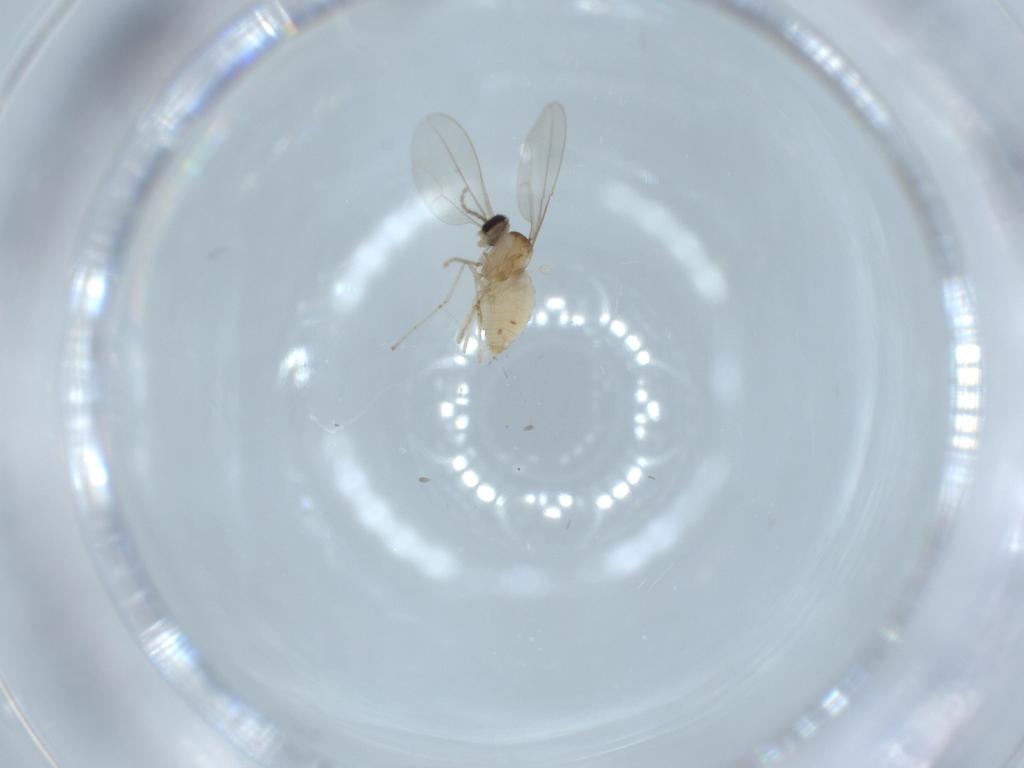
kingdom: Animalia
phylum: Arthropoda
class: Insecta
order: Diptera
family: Cecidomyiidae
